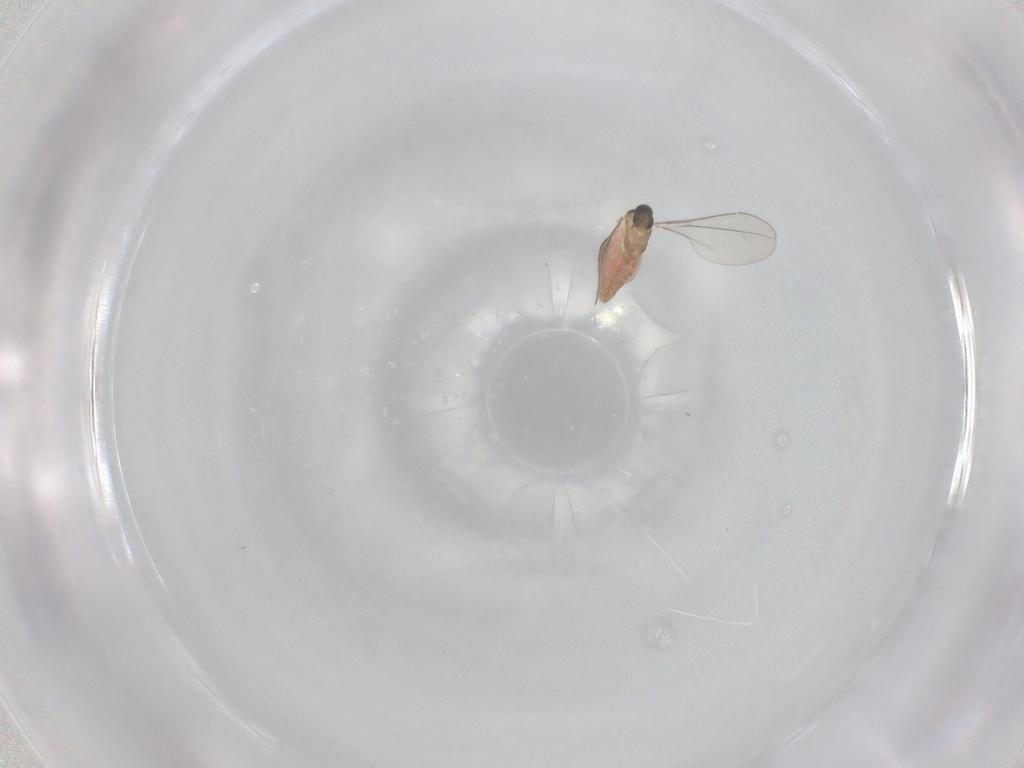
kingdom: Animalia
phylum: Arthropoda
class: Insecta
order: Diptera
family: Cecidomyiidae
